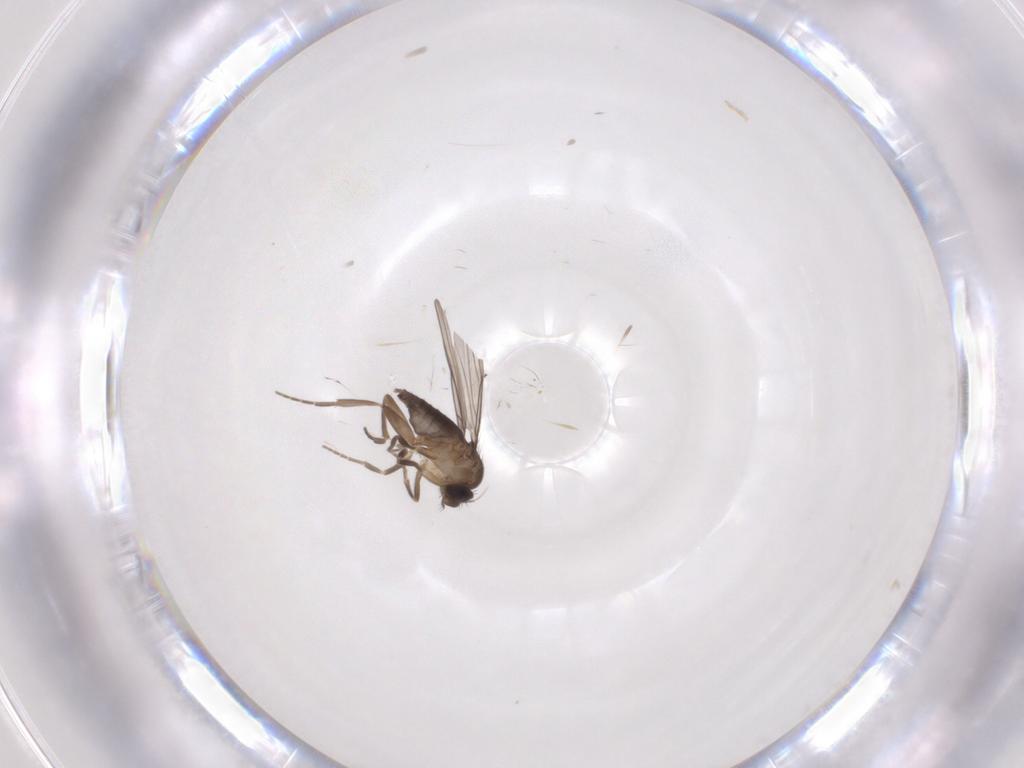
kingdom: Animalia
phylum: Arthropoda
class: Insecta
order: Diptera
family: Phoridae
